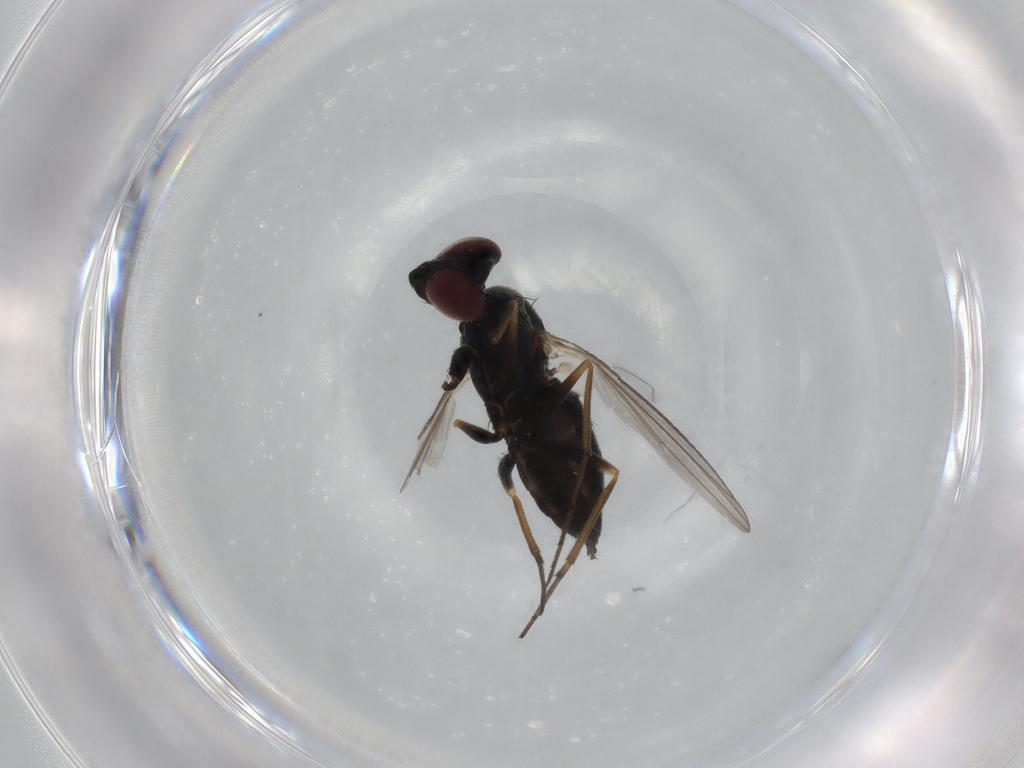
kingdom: Animalia
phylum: Arthropoda
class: Insecta
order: Diptera
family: Dolichopodidae
